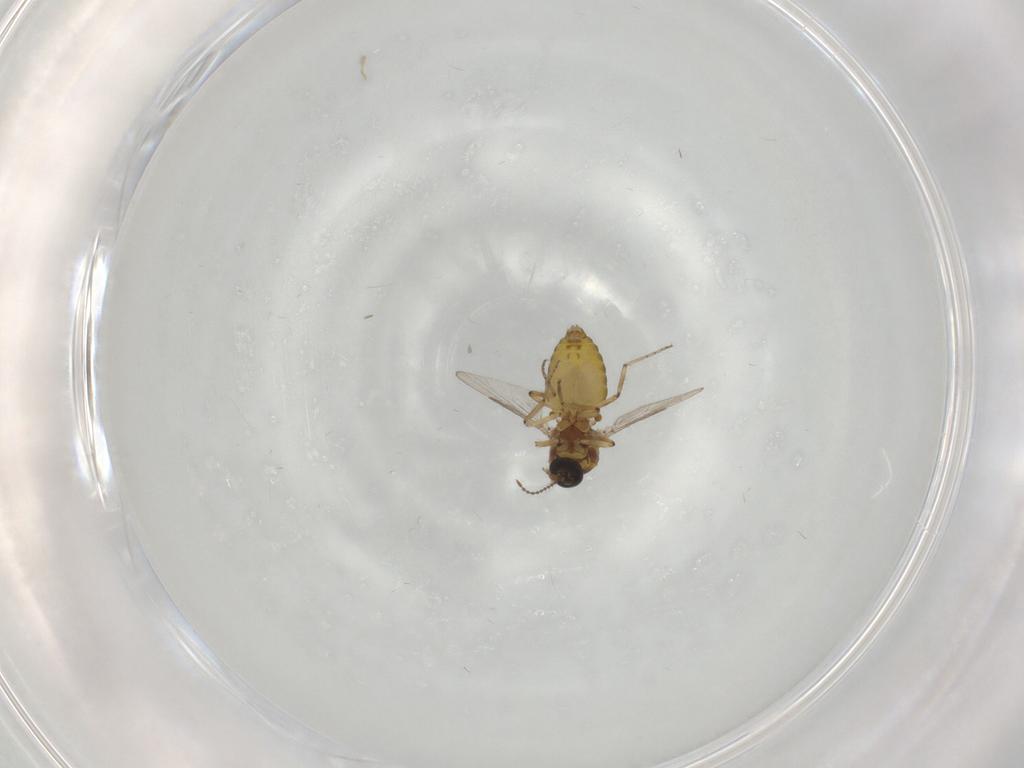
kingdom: Animalia
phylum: Arthropoda
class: Insecta
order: Diptera
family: Ceratopogonidae
